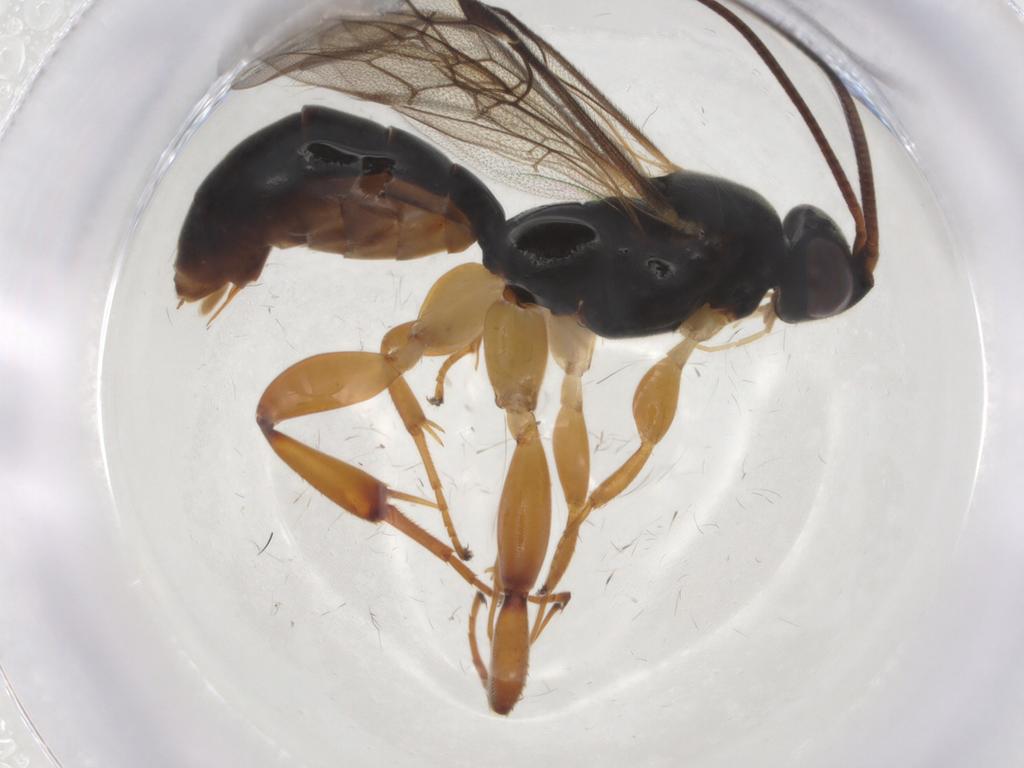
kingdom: Animalia
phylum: Arthropoda
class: Insecta
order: Hymenoptera
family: Ichneumonidae
